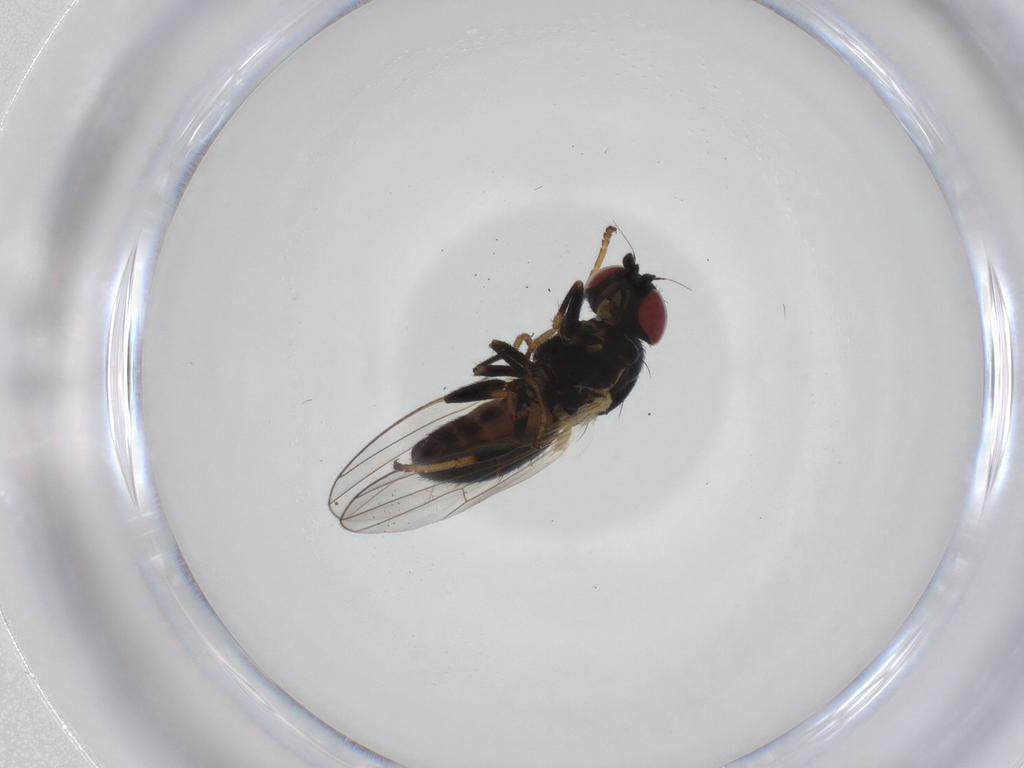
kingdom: Animalia
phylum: Arthropoda
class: Insecta
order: Diptera
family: Chamaemyiidae
